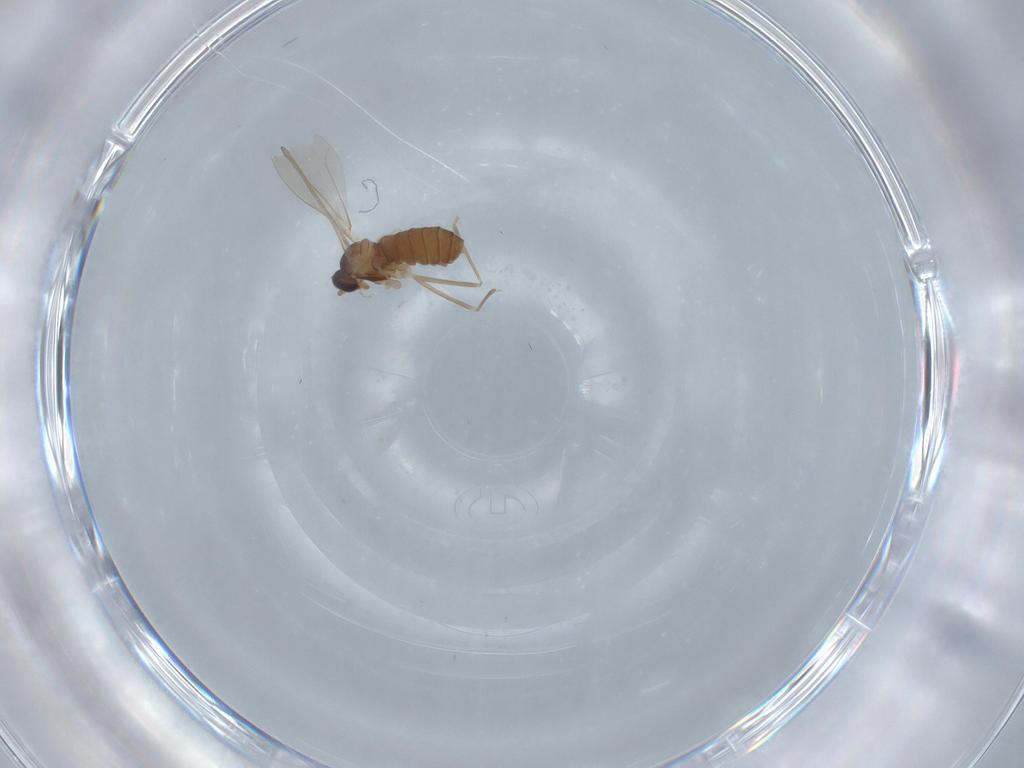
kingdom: Animalia
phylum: Arthropoda
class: Insecta
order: Diptera
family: Cecidomyiidae
